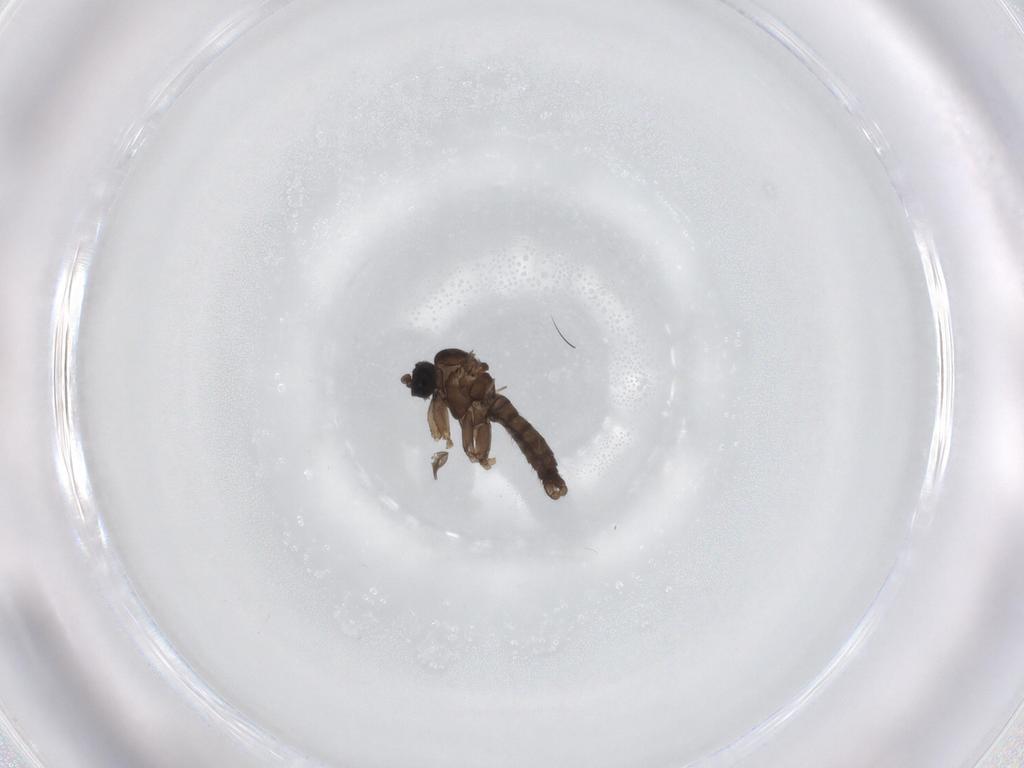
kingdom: Animalia
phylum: Arthropoda
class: Insecta
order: Diptera
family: Sciaridae
